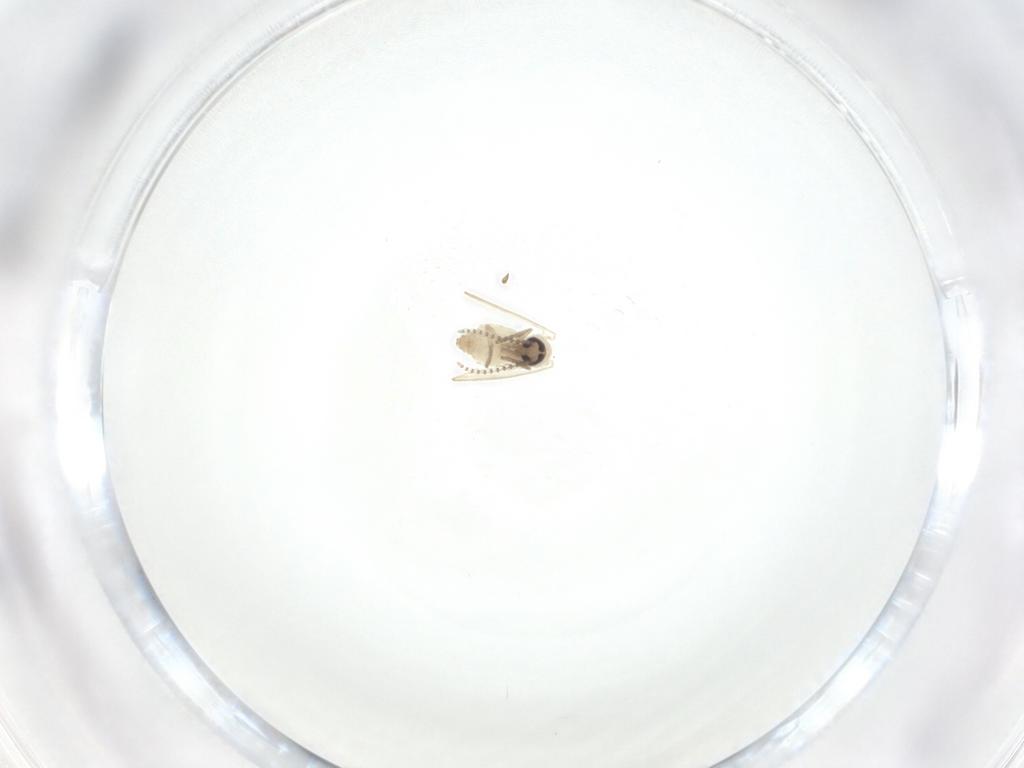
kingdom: Animalia
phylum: Arthropoda
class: Insecta
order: Diptera
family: Psychodidae
